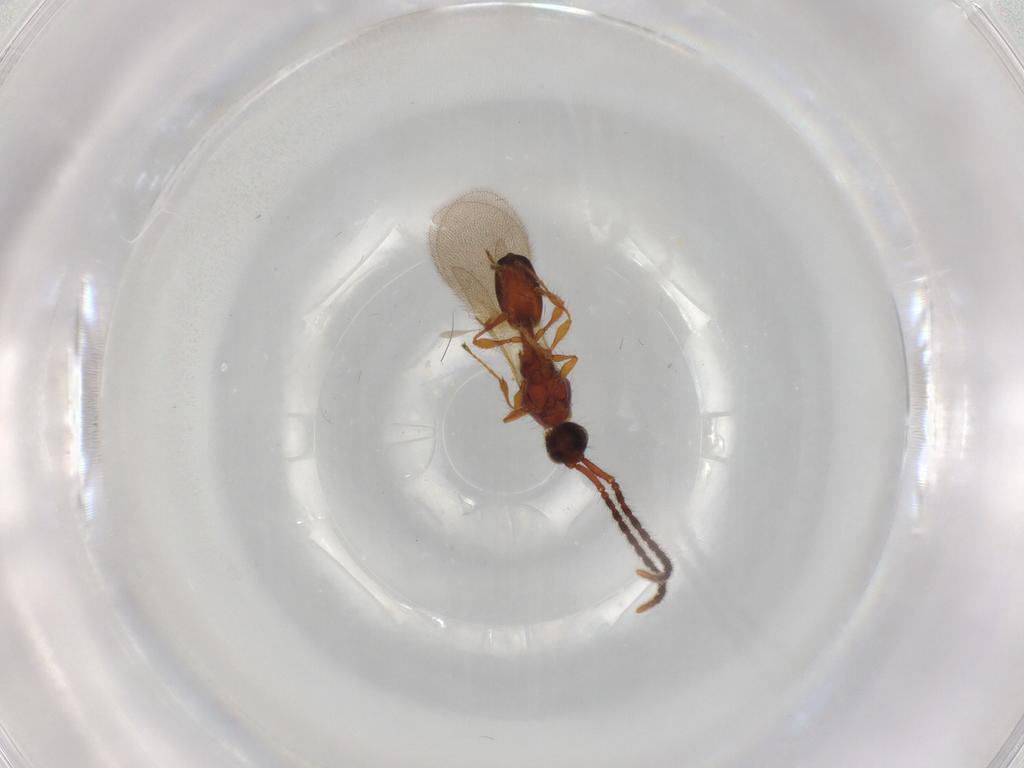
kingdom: Animalia
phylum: Arthropoda
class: Insecta
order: Hymenoptera
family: Diapriidae
